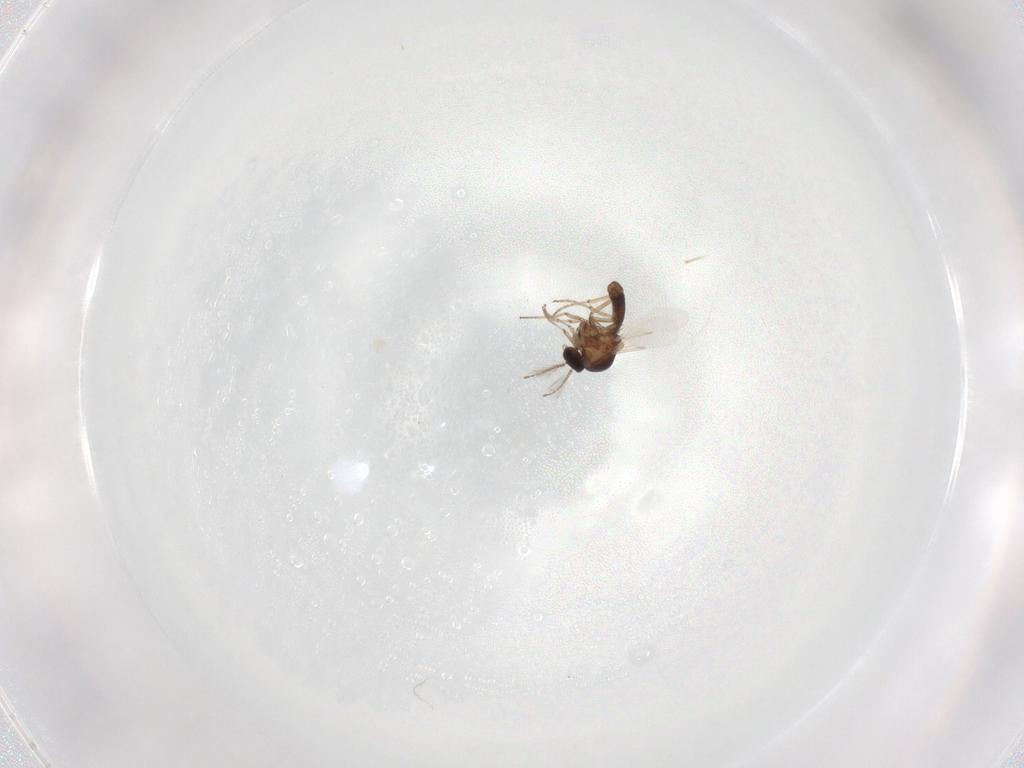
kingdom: Animalia
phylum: Arthropoda
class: Insecta
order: Diptera
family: Ceratopogonidae
